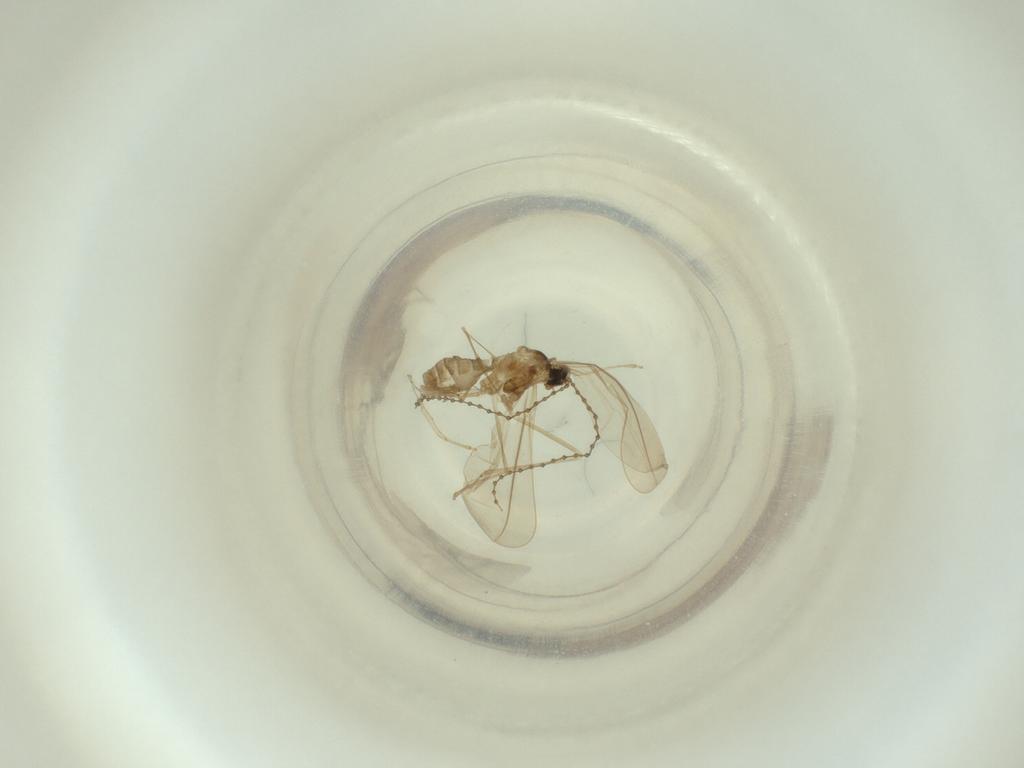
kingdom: Animalia
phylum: Arthropoda
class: Insecta
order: Diptera
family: Cecidomyiidae
